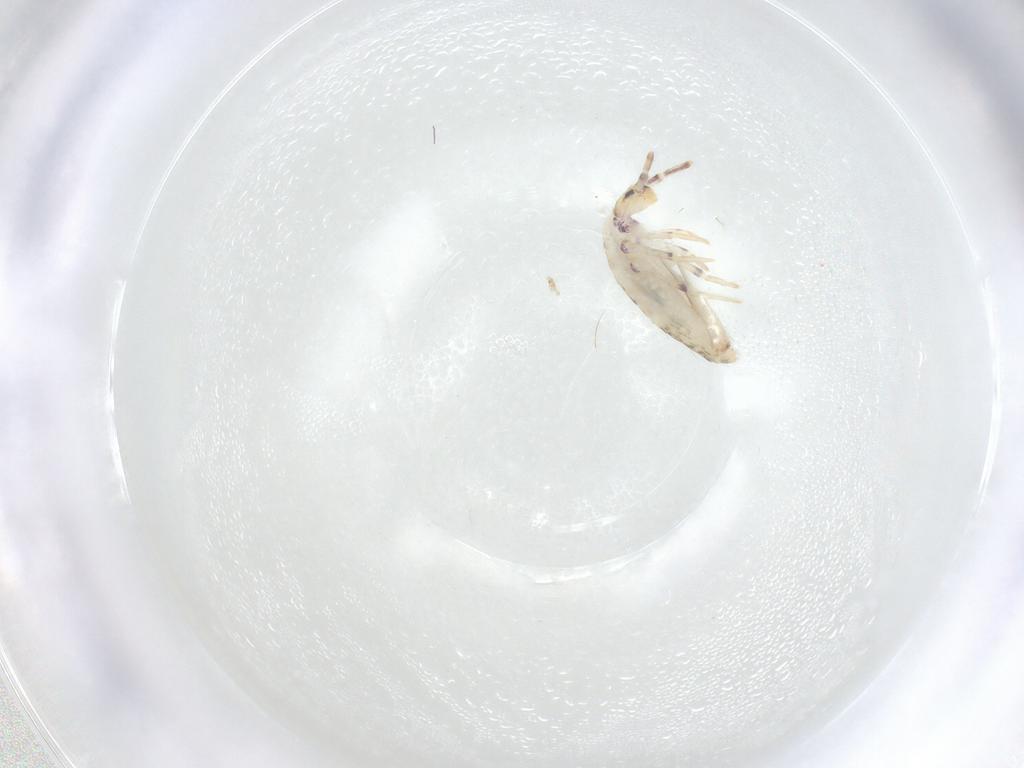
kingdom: Animalia
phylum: Arthropoda
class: Collembola
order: Entomobryomorpha
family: Entomobryidae
